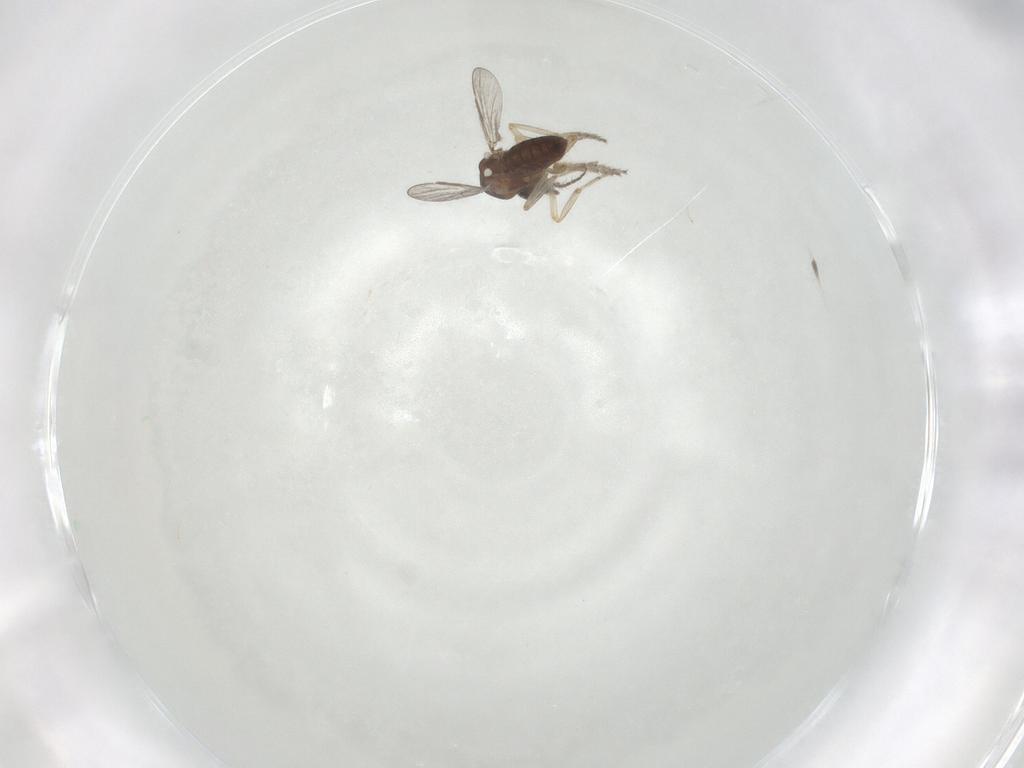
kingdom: Animalia
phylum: Arthropoda
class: Insecta
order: Diptera
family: Ceratopogonidae
